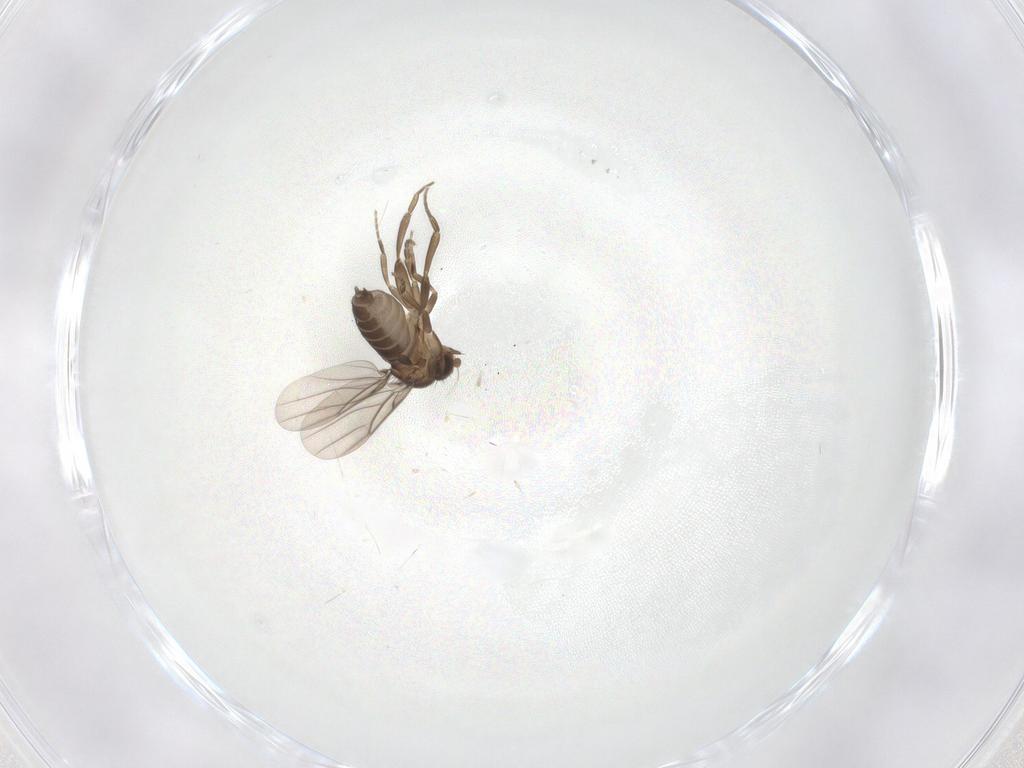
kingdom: Animalia
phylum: Arthropoda
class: Insecta
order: Diptera
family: Phoridae
